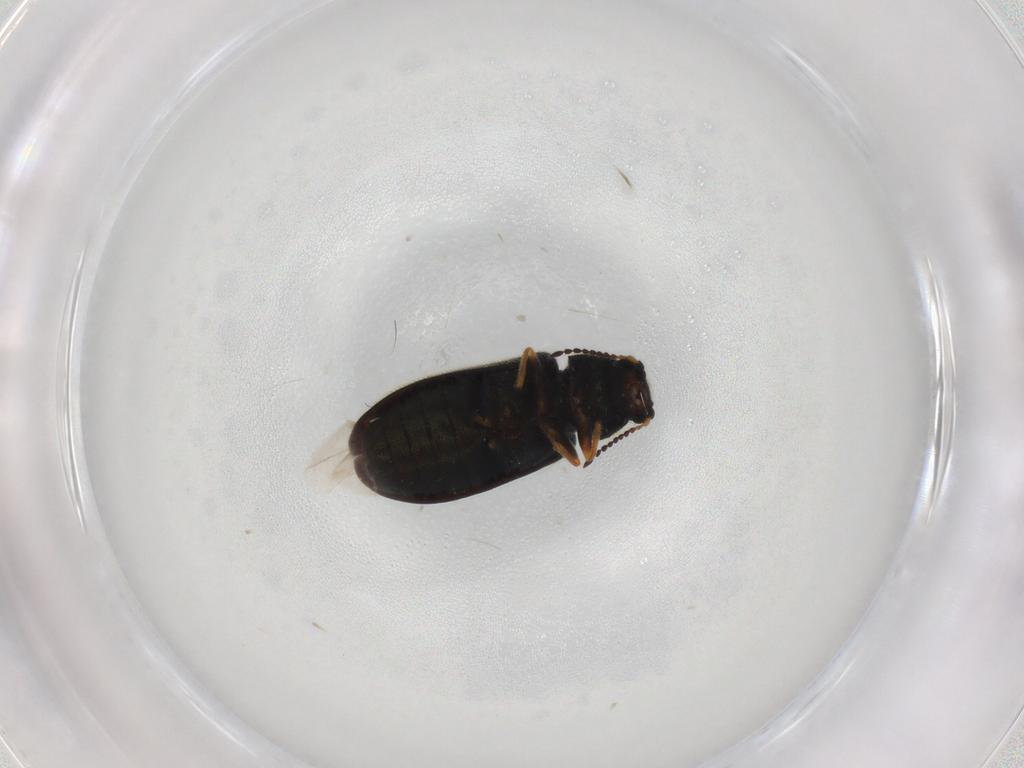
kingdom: Animalia
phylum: Arthropoda
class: Insecta
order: Coleoptera
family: Dasytidae
